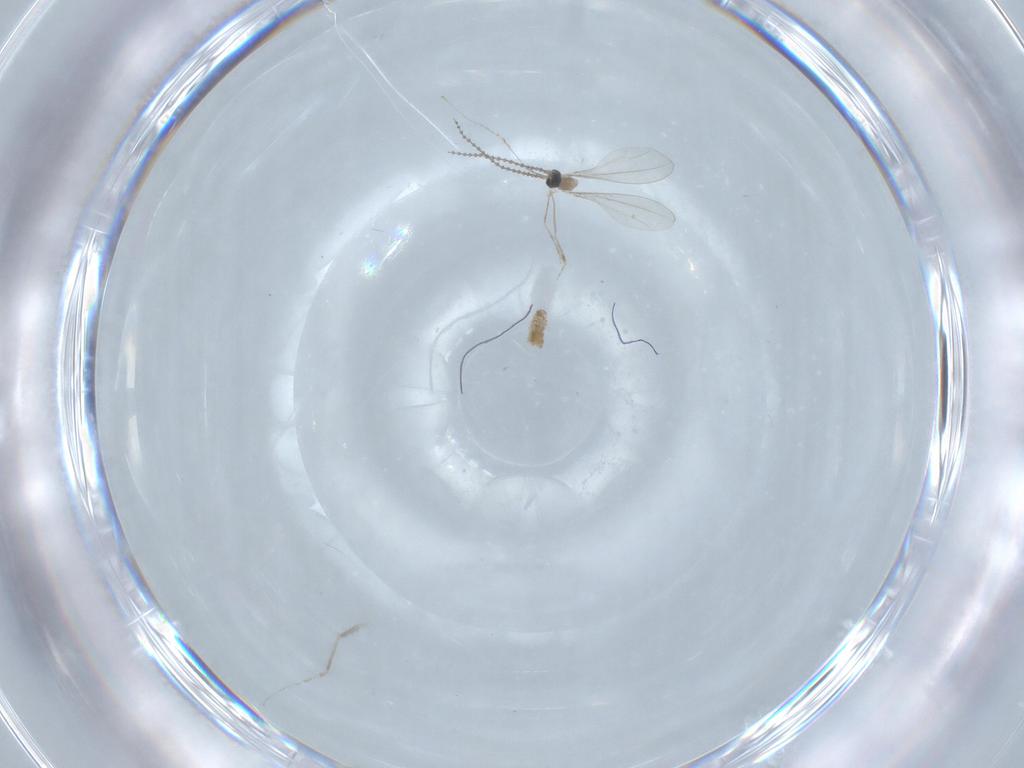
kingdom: Animalia
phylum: Arthropoda
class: Insecta
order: Diptera
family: Cecidomyiidae
